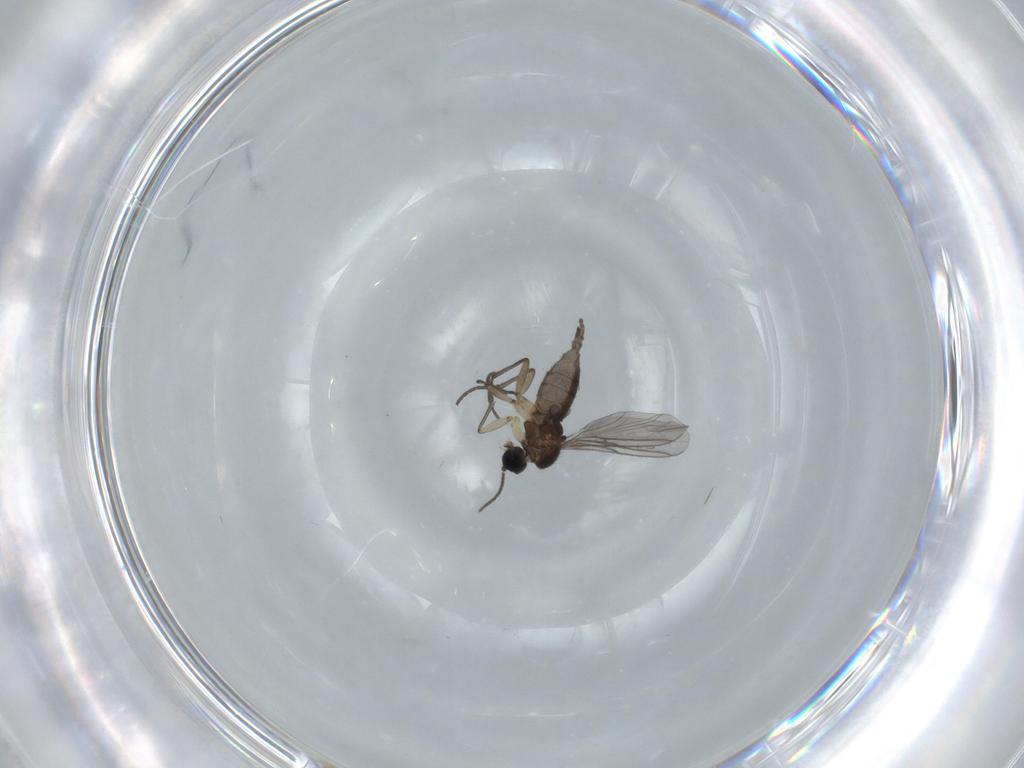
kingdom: Animalia
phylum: Arthropoda
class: Insecta
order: Diptera
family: Sciaridae
